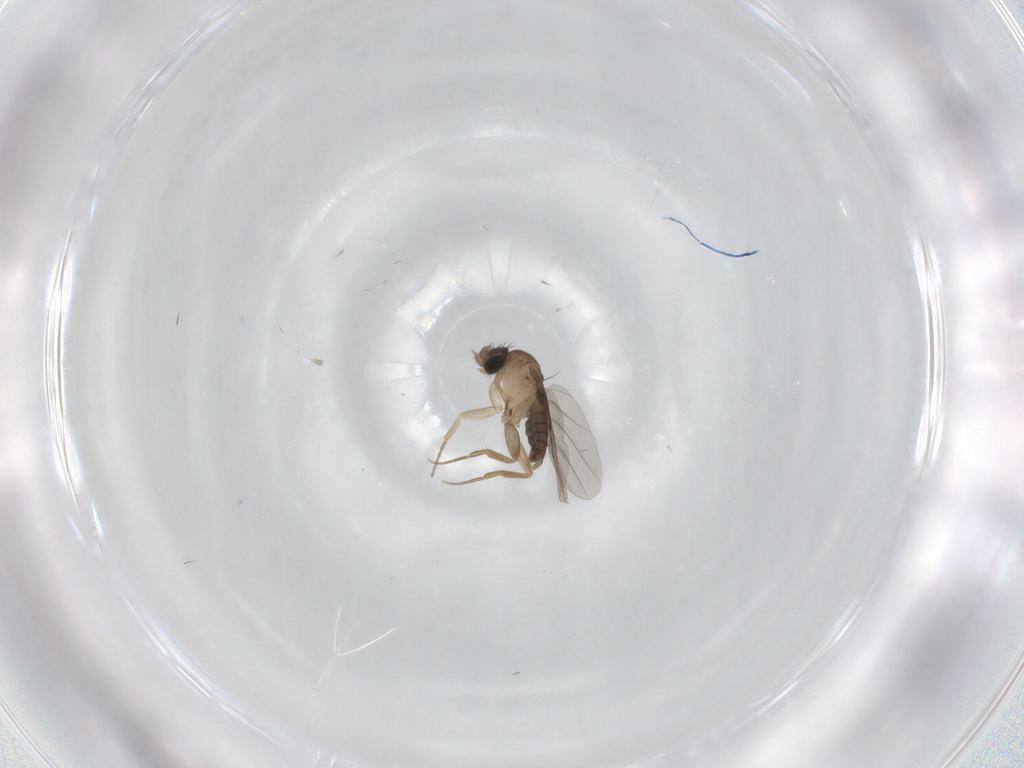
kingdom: Animalia
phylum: Arthropoda
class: Insecta
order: Diptera
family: Phoridae
